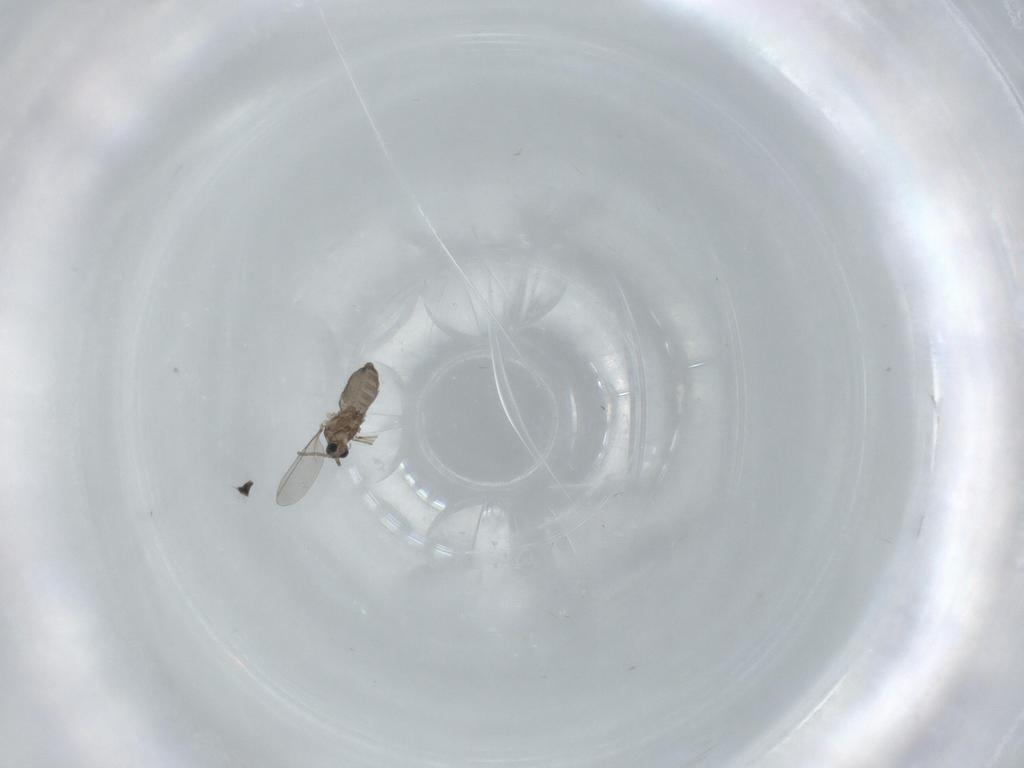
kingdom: Animalia
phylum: Arthropoda
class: Insecta
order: Diptera
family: Cecidomyiidae
